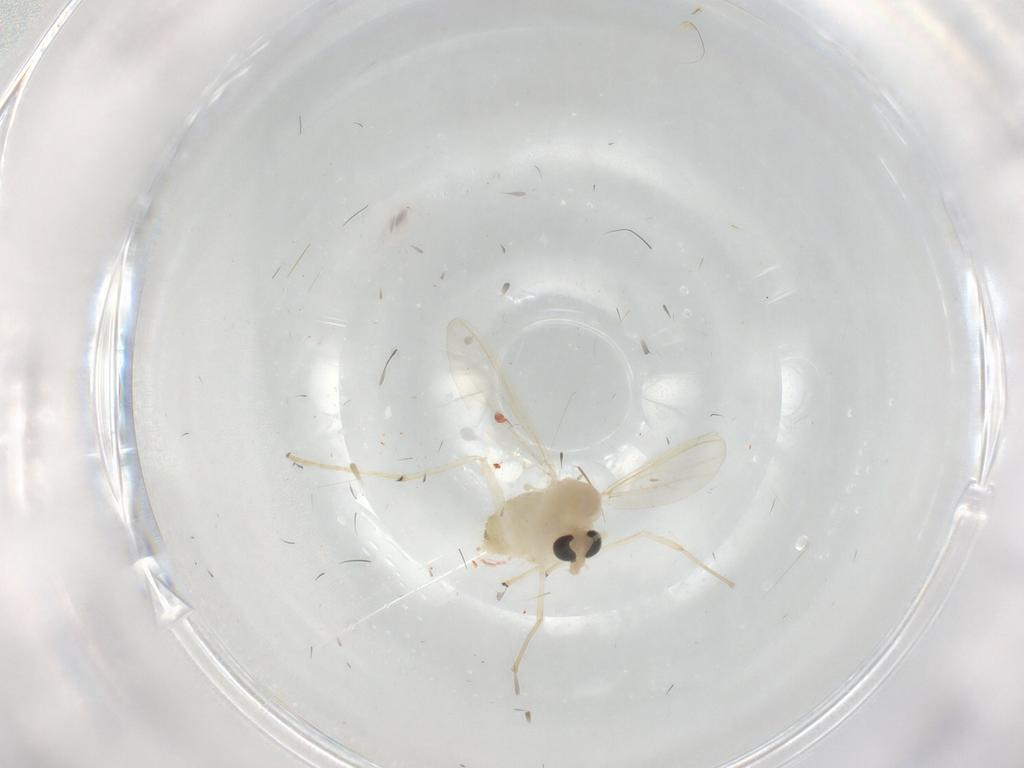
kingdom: Animalia
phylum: Arthropoda
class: Insecta
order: Diptera
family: Chironomidae
